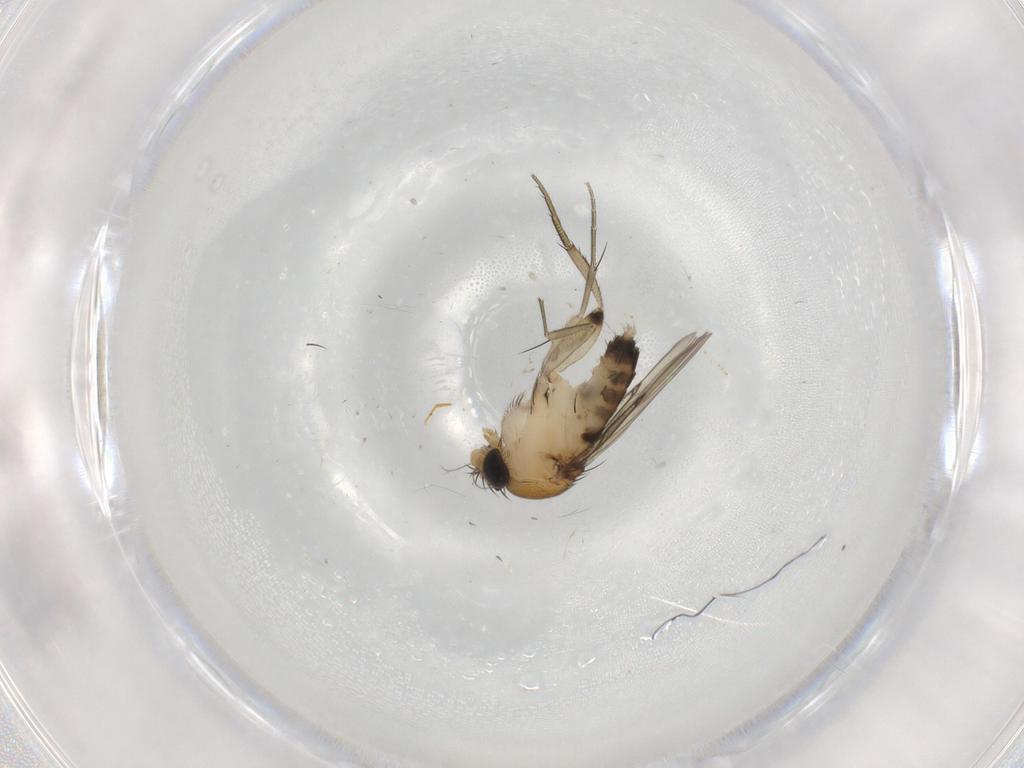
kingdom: Animalia
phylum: Arthropoda
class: Insecta
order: Diptera
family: Phoridae
